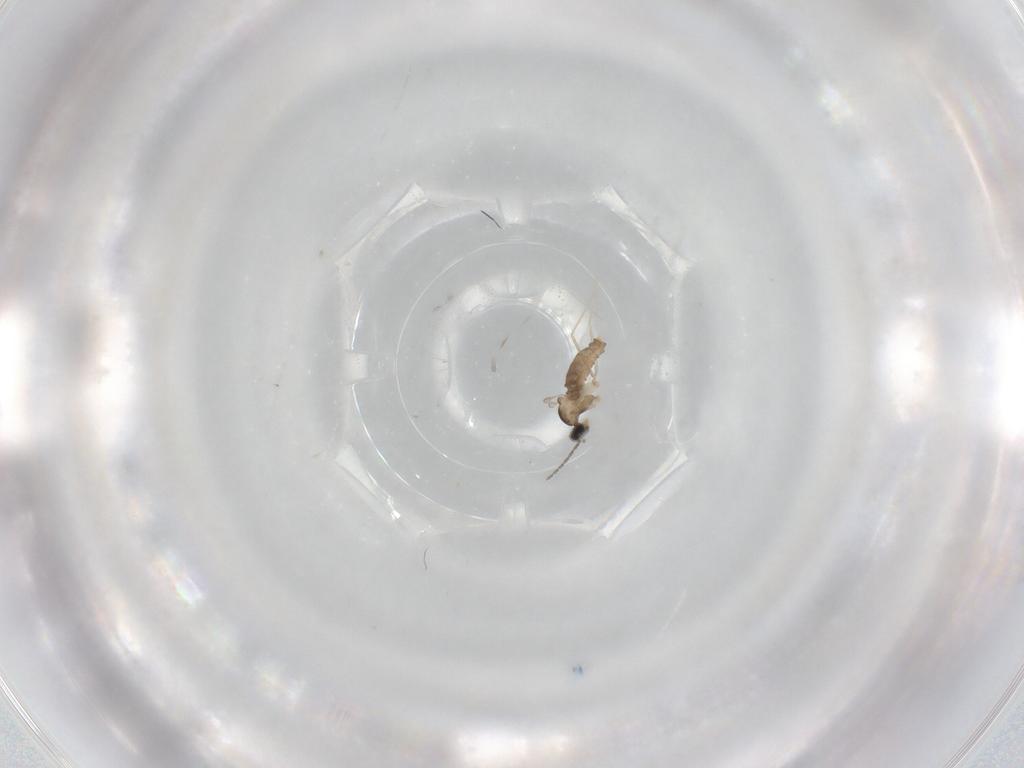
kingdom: Animalia
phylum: Arthropoda
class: Insecta
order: Diptera
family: Cecidomyiidae
